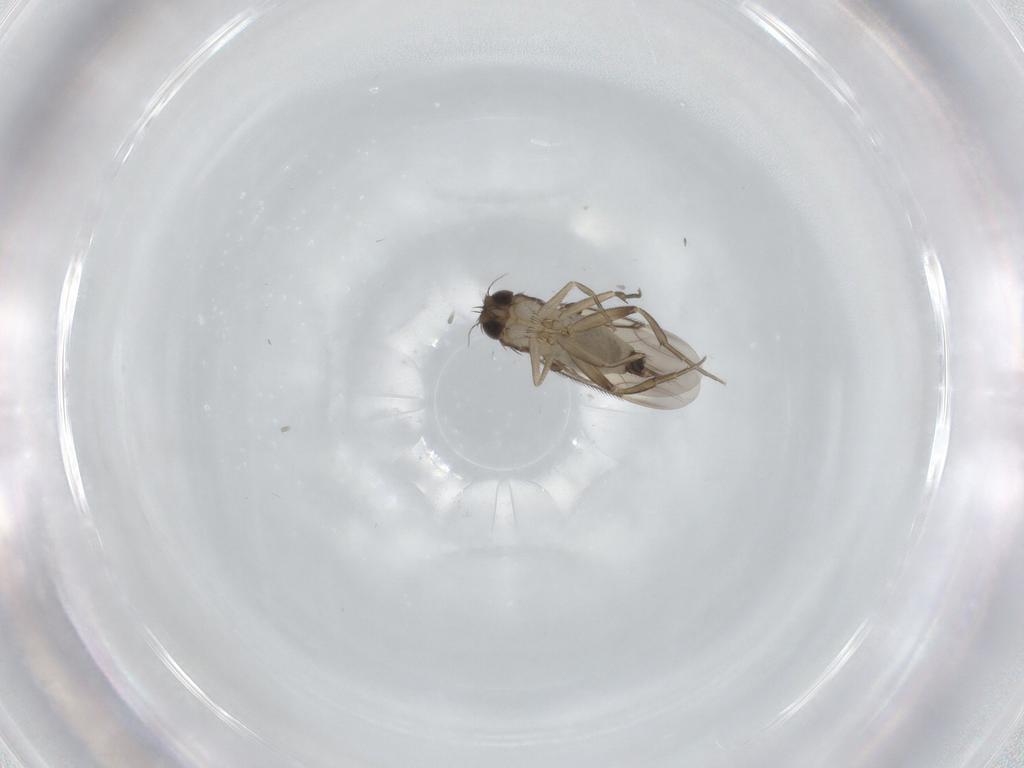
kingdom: Animalia
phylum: Arthropoda
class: Insecta
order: Diptera
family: Phoridae
